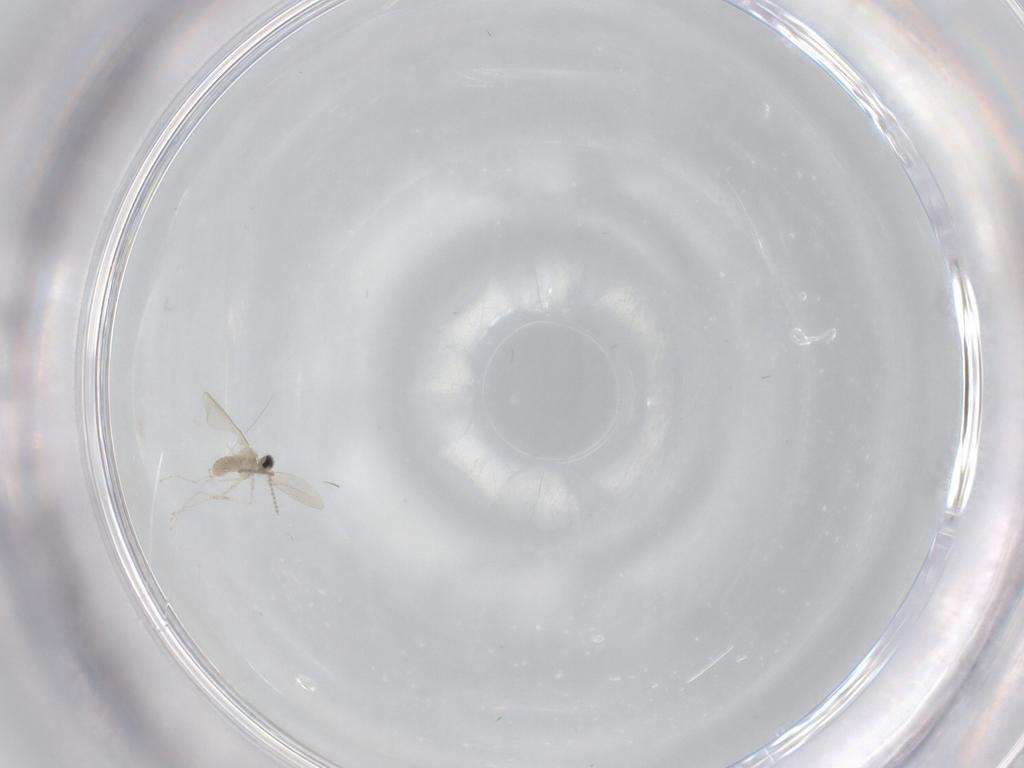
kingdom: Animalia
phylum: Arthropoda
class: Insecta
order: Diptera
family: Cecidomyiidae
